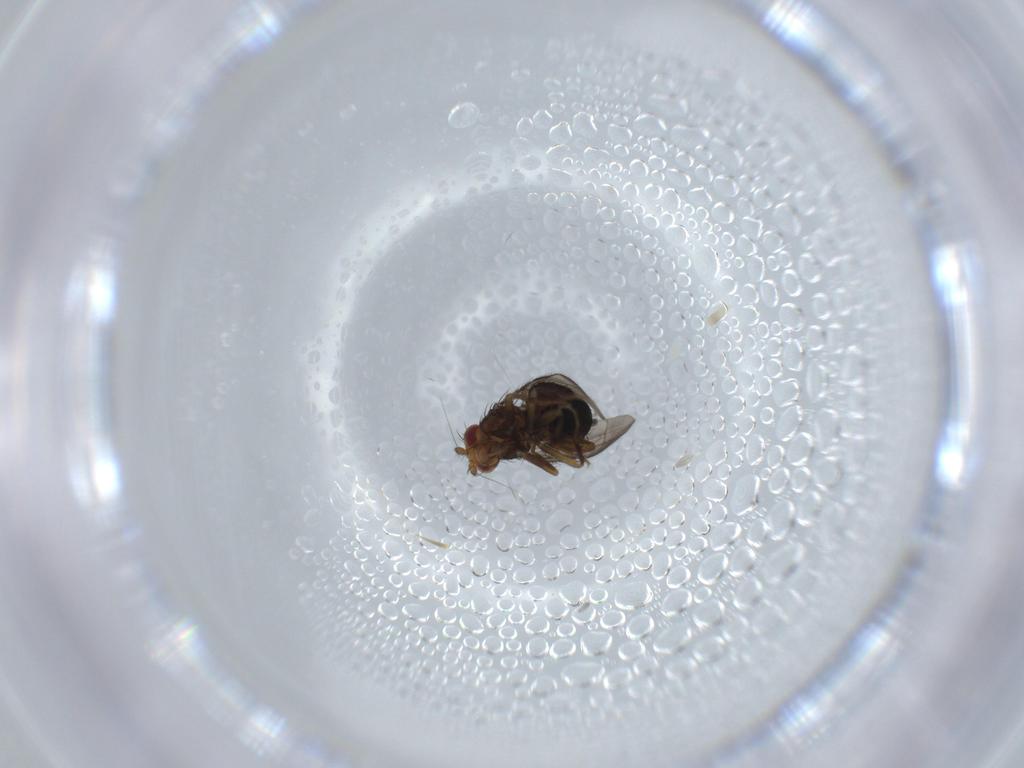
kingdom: Animalia
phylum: Arthropoda
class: Insecta
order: Diptera
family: Sphaeroceridae
